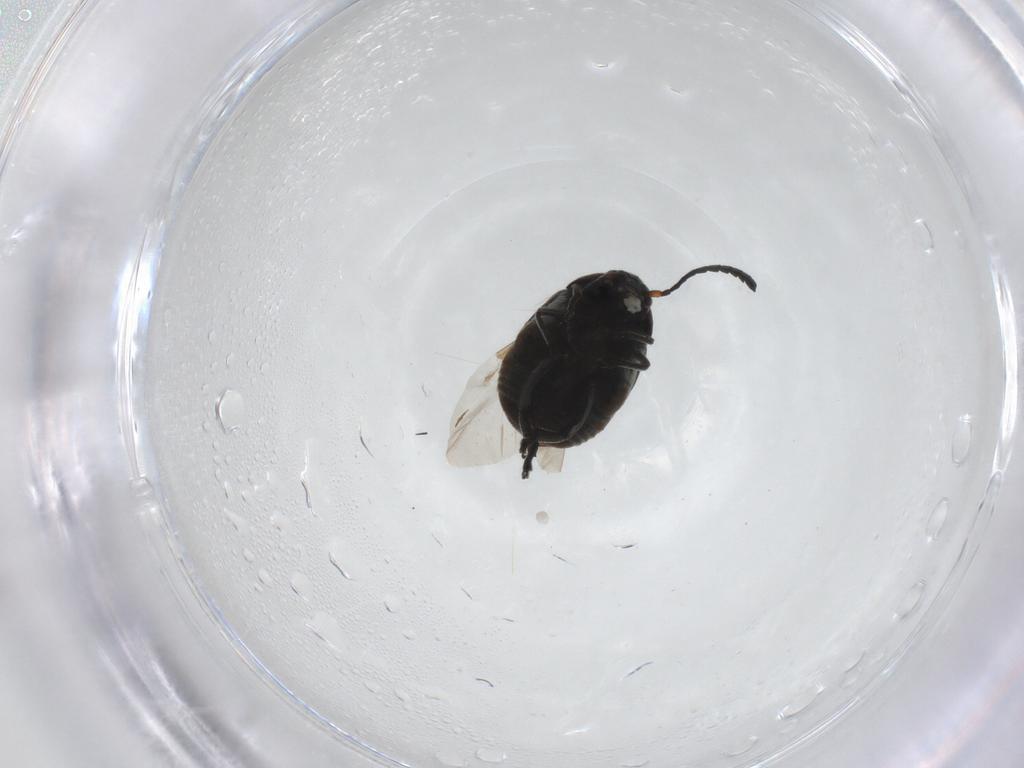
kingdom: Animalia
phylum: Arthropoda
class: Insecta
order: Coleoptera
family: Chrysomelidae
